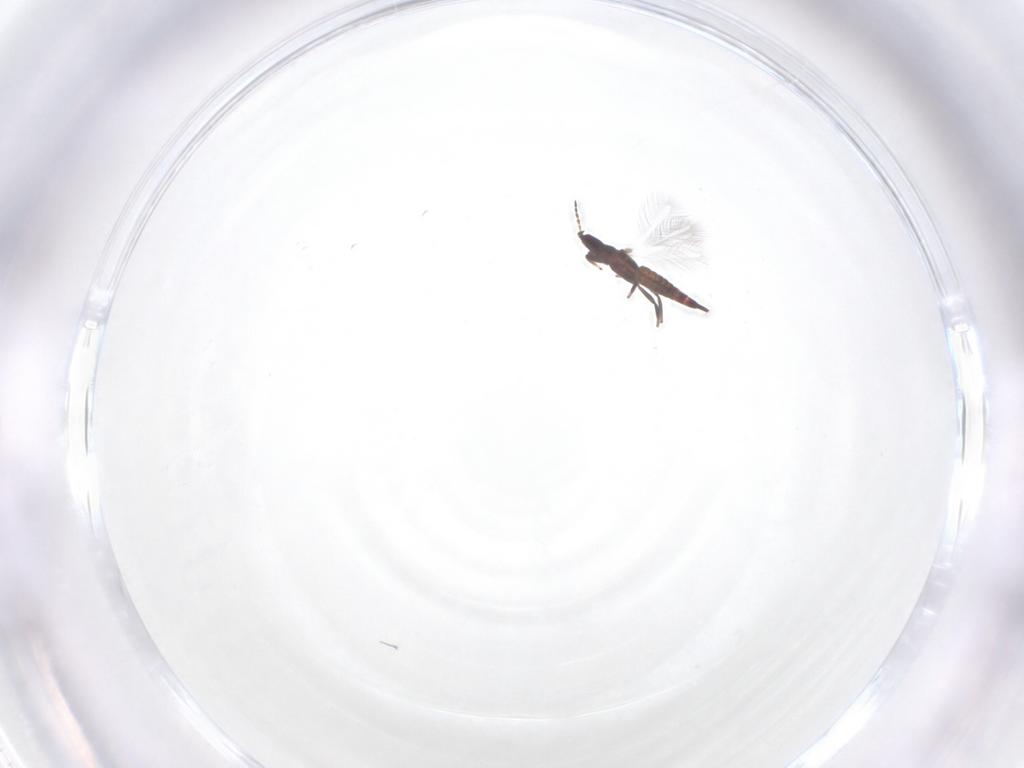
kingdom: Animalia
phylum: Arthropoda
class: Insecta
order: Thysanoptera
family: Phlaeothripidae
